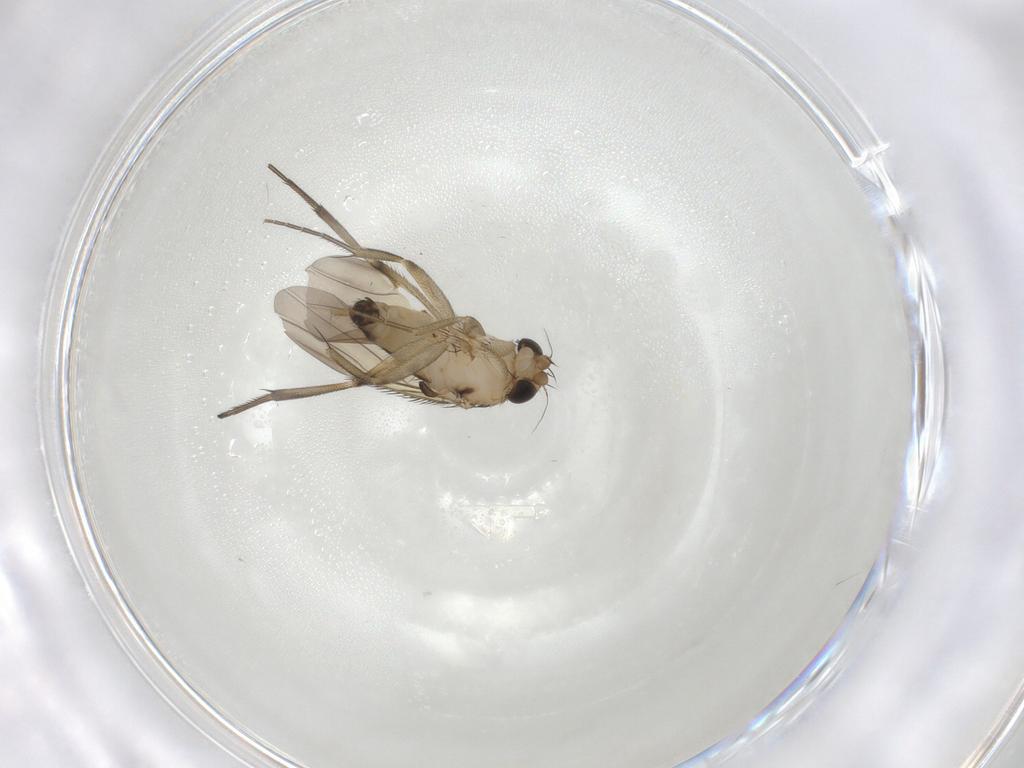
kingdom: Animalia
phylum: Arthropoda
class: Insecta
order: Diptera
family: Phoridae
